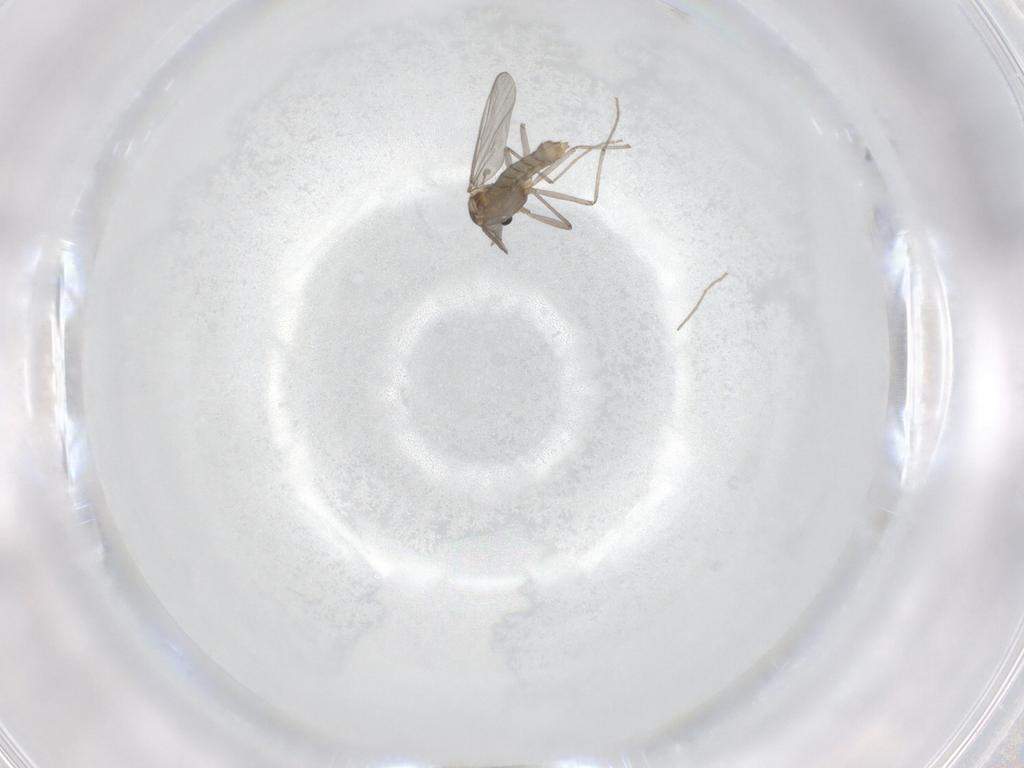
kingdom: Animalia
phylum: Arthropoda
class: Insecta
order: Diptera
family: Chironomidae
